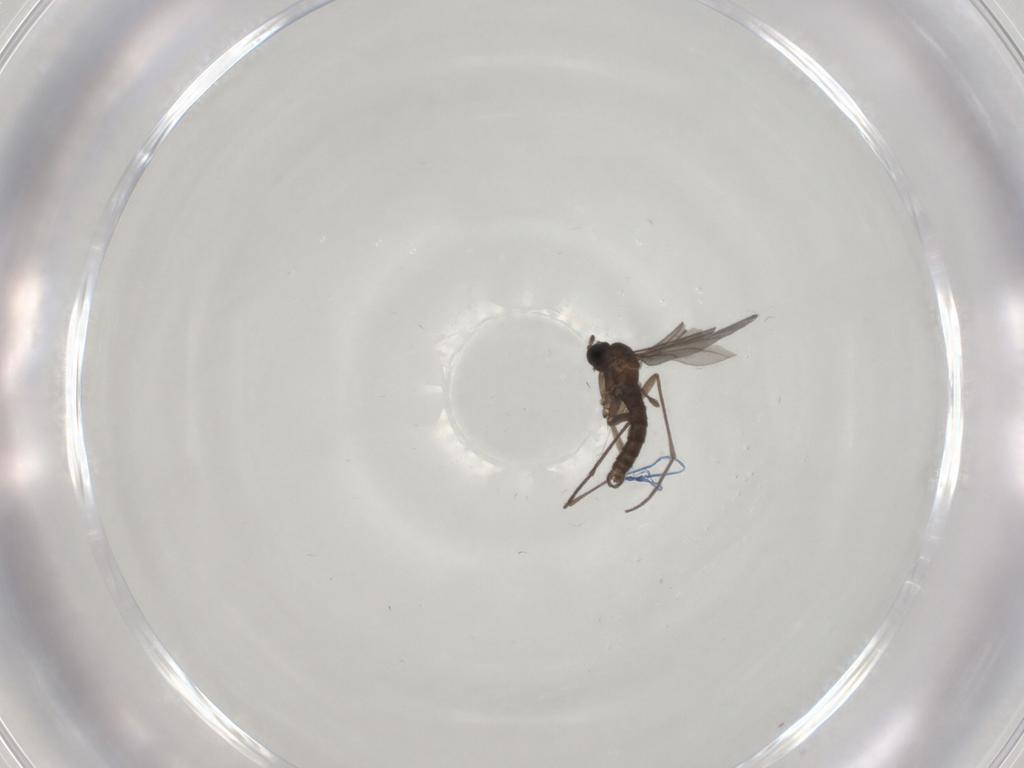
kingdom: Animalia
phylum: Arthropoda
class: Insecta
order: Diptera
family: Sciaridae
